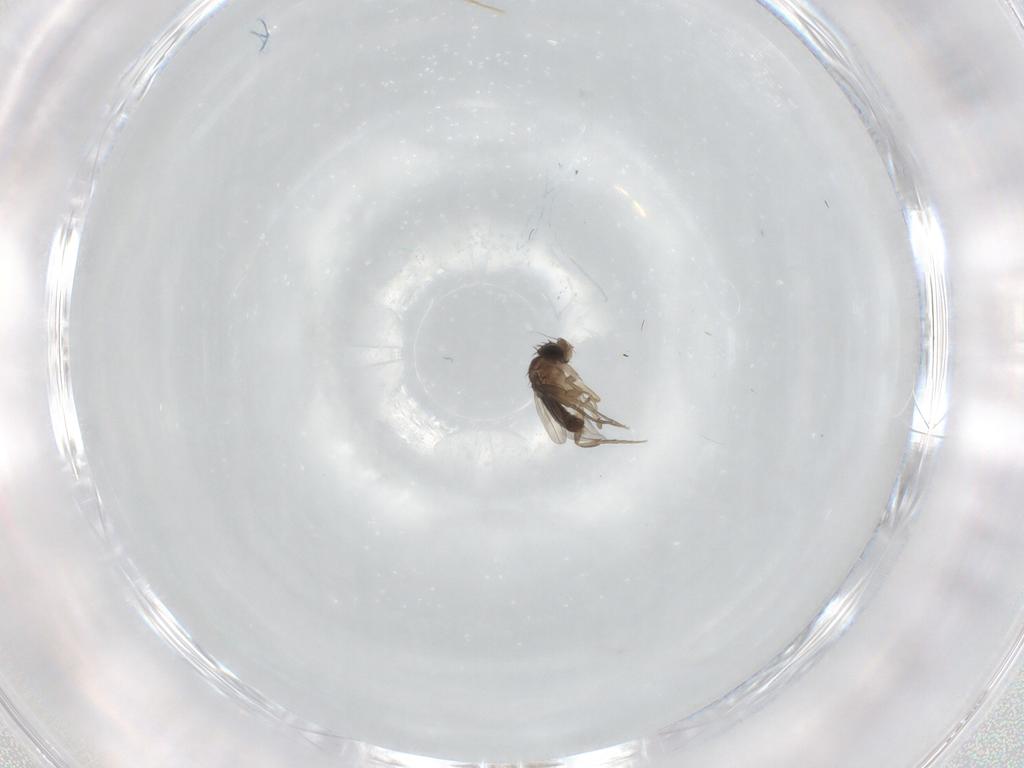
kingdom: Animalia
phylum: Arthropoda
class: Insecta
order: Diptera
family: Phoridae
